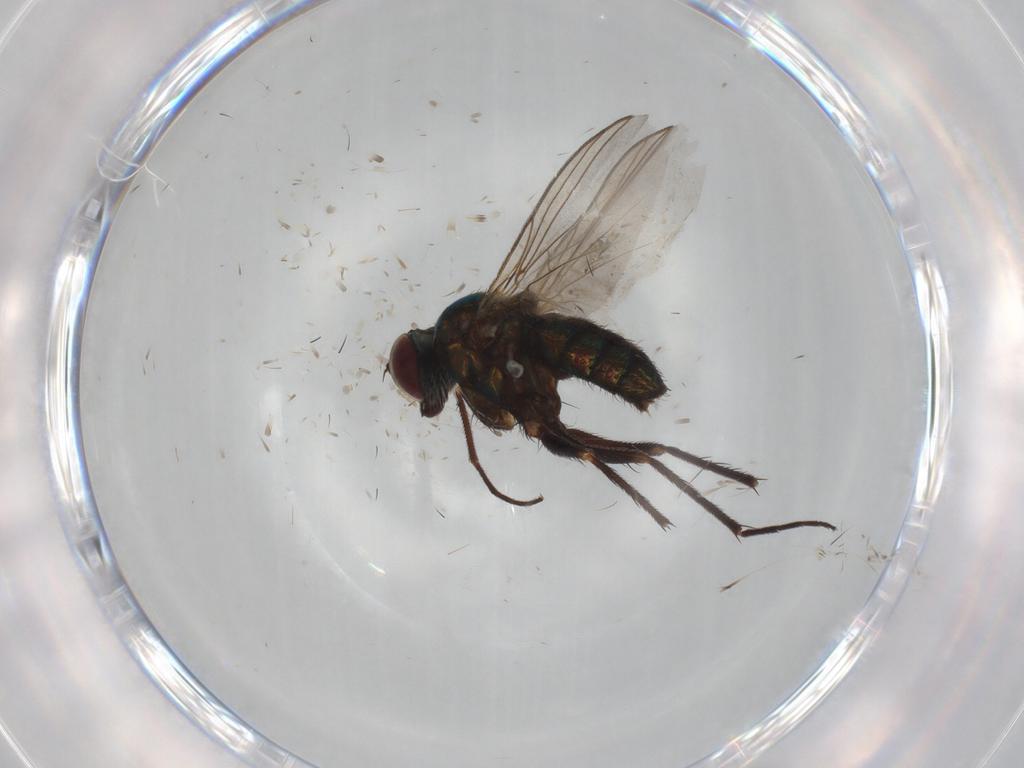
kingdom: Animalia
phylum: Arthropoda
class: Insecta
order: Diptera
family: Dolichopodidae
